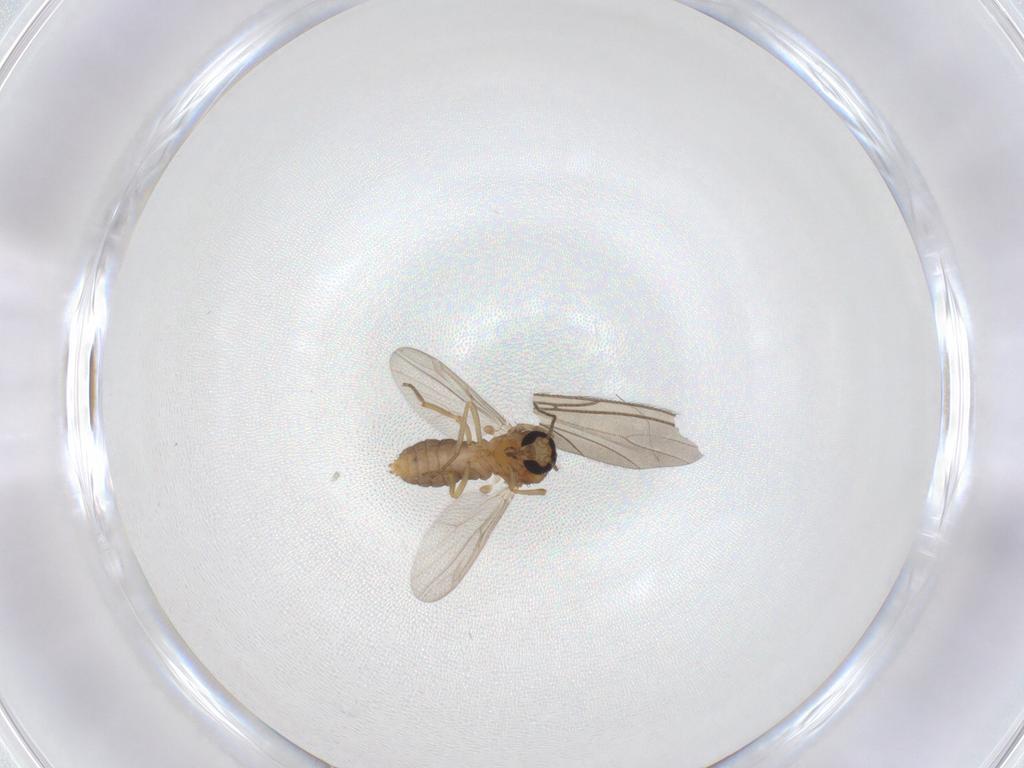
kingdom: Animalia
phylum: Arthropoda
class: Insecta
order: Diptera
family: Ceratopogonidae
